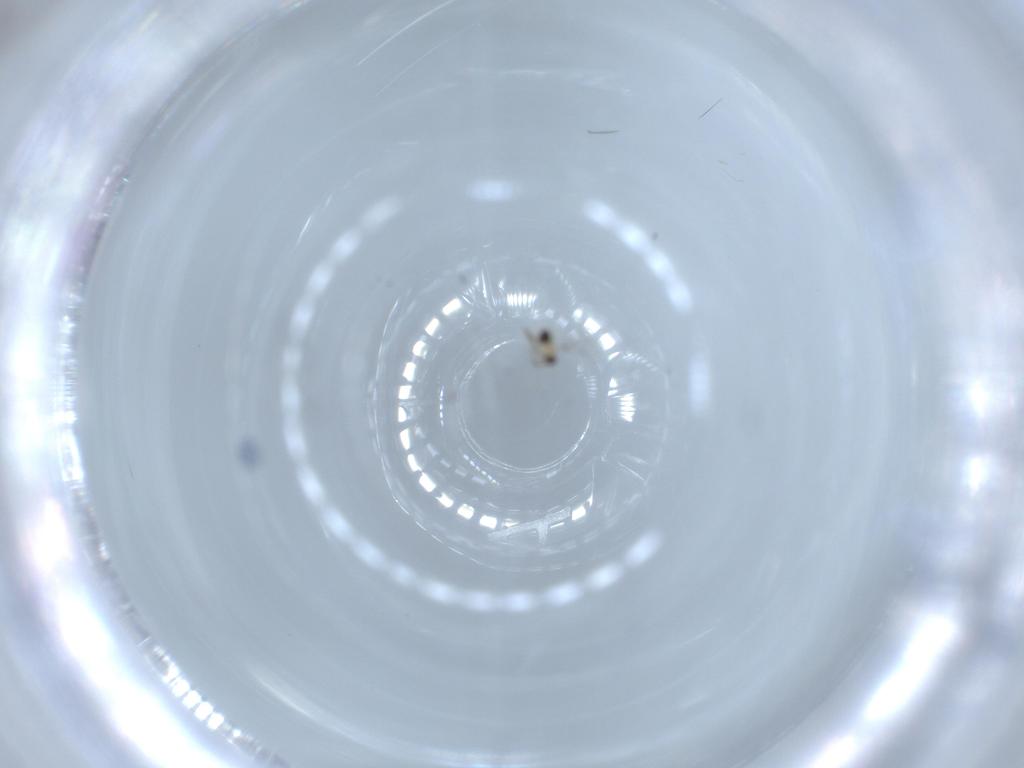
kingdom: Animalia
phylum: Arthropoda
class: Insecta
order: Hymenoptera
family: Mymaridae
